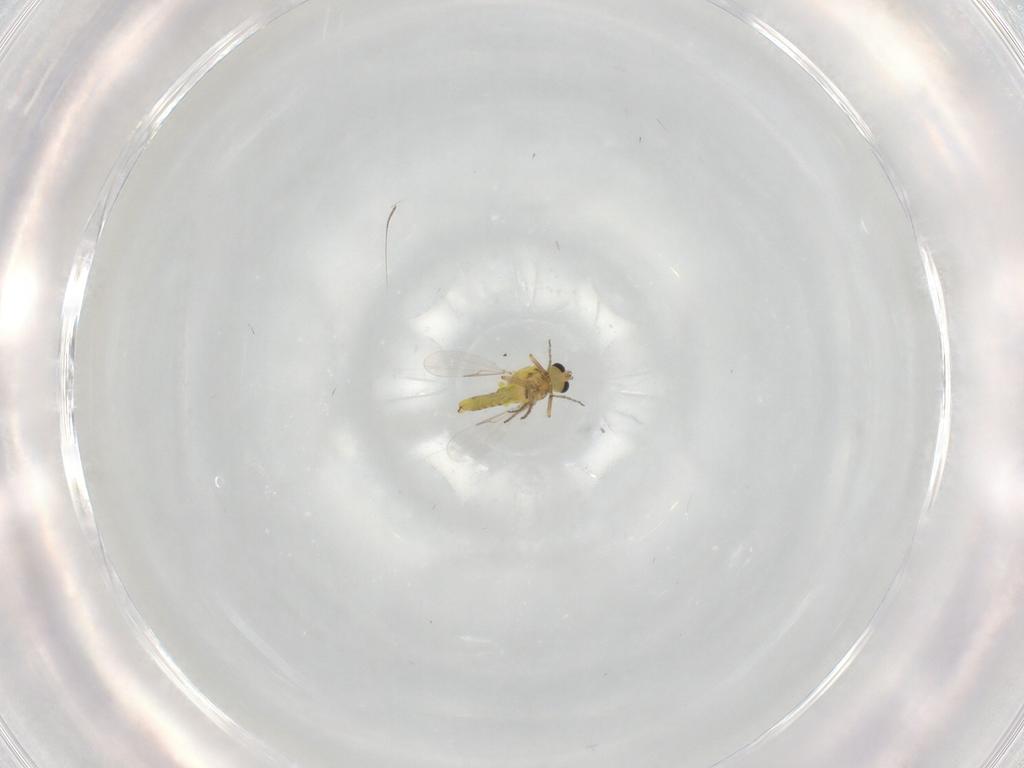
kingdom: Animalia
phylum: Arthropoda
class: Insecta
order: Diptera
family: Ceratopogonidae
